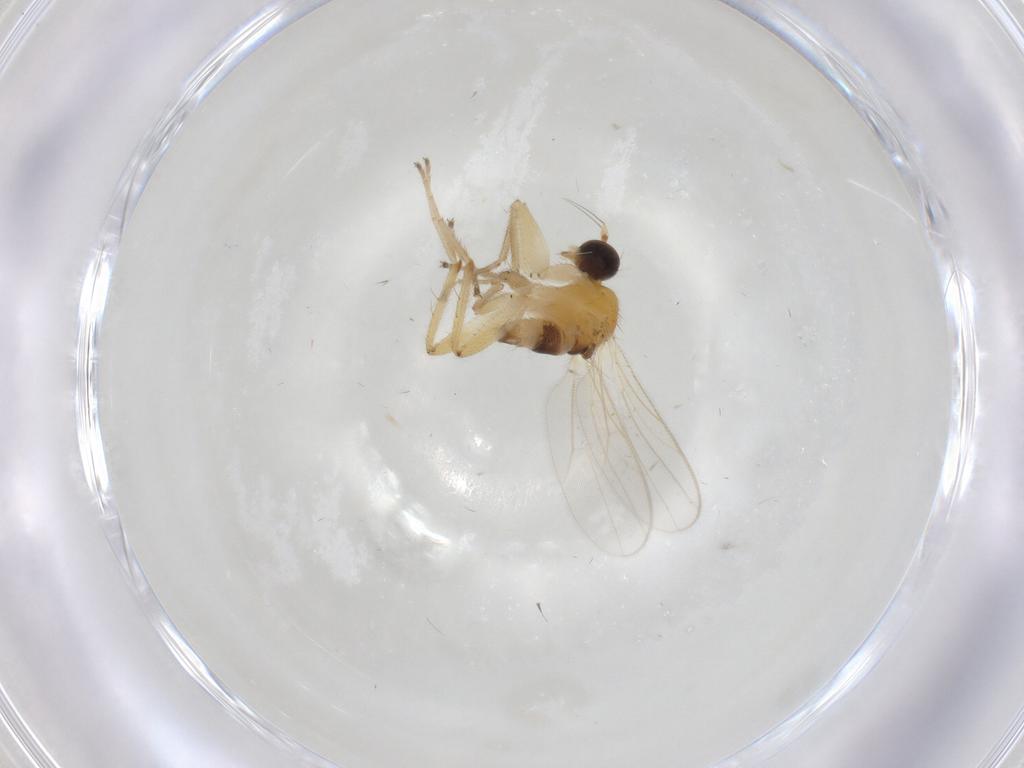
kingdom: Animalia
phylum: Arthropoda
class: Insecta
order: Diptera
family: Hybotidae
